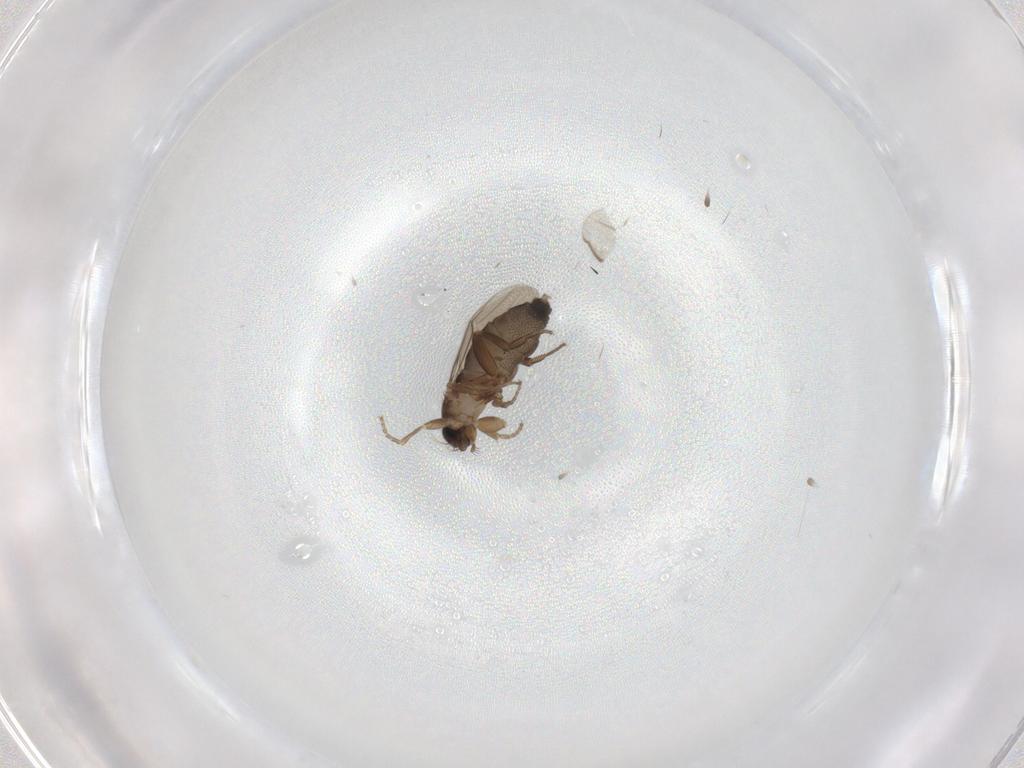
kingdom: Animalia
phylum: Arthropoda
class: Insecta
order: Diptera
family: Phoridae
